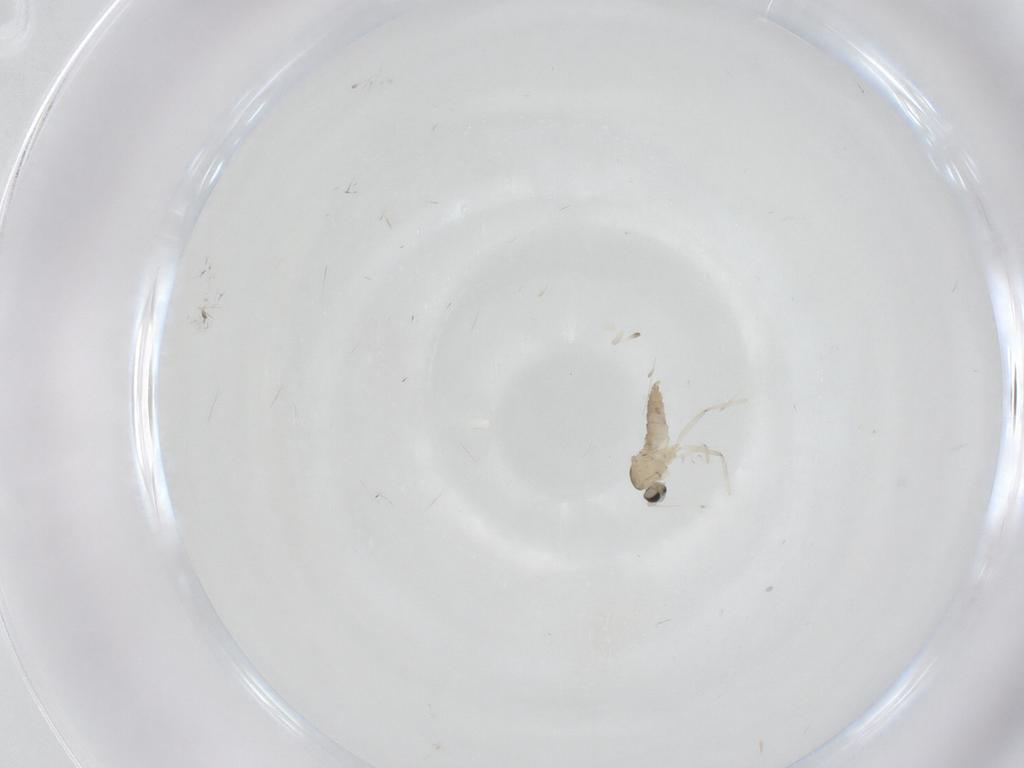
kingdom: Animalia
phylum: Arthropoda
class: Insecta
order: Diptera
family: Cecidomyiidae
